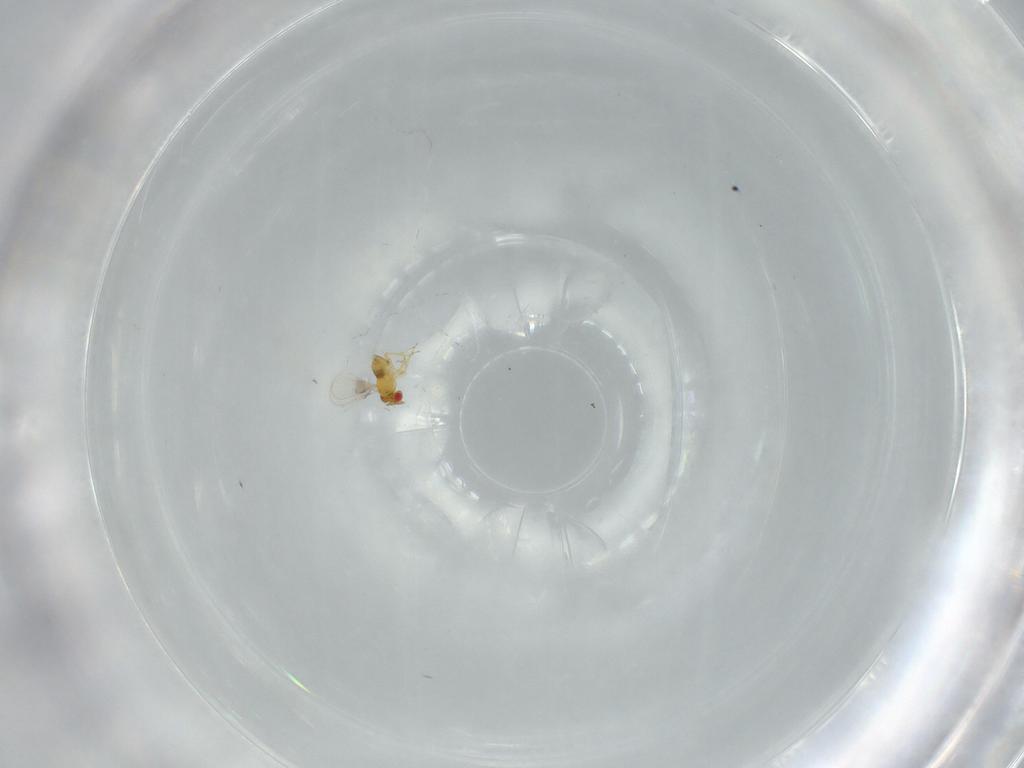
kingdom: Animalia
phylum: Arthropoda
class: Insecta
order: Hymenoptera
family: Trichogrammatidae
